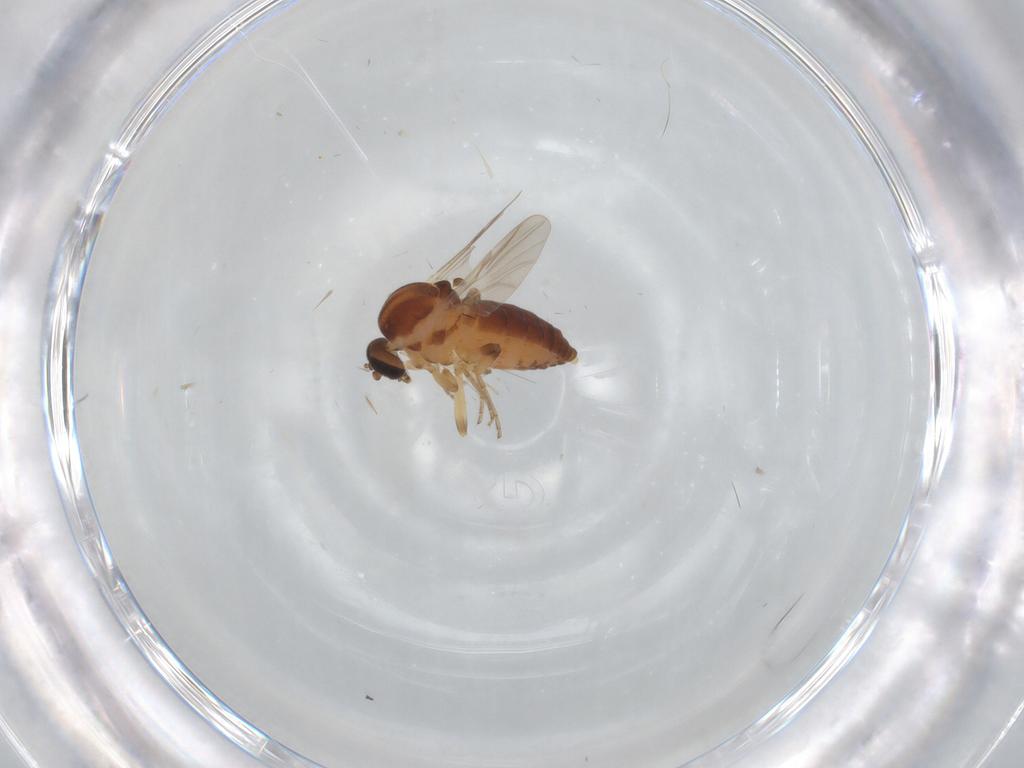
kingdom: Animalia
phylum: Arthropoda
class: Insecta
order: Diptera
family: Ceratopogonidae
